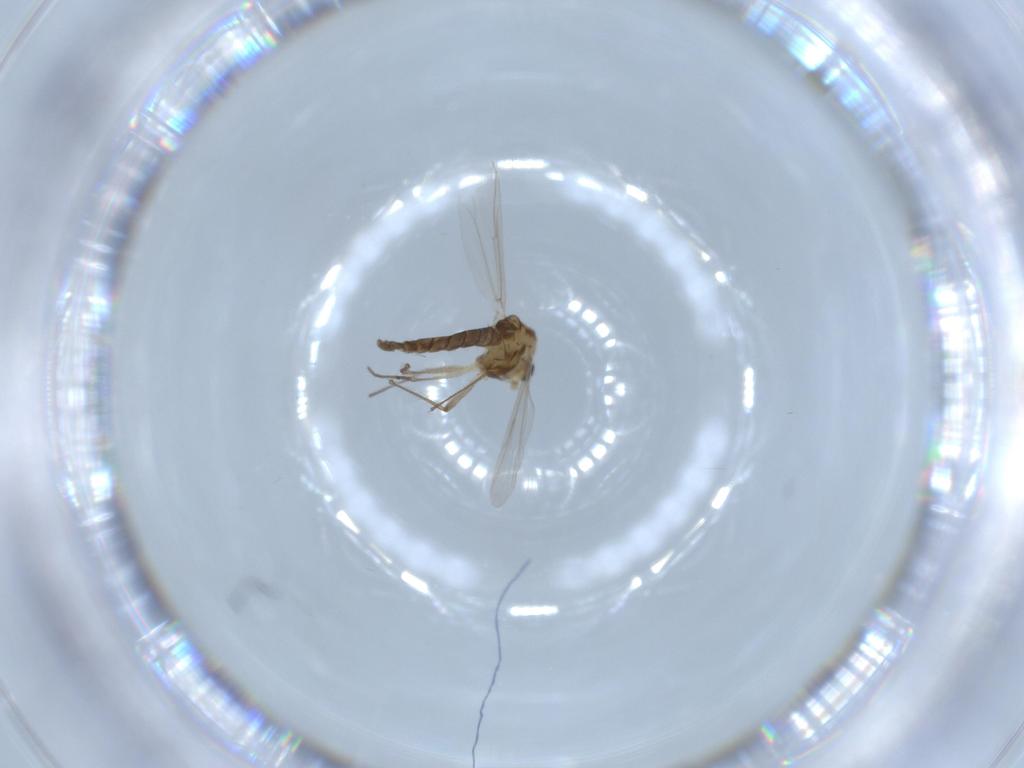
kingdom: Animalia
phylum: Arthropoda
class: Insecta
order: Diptera
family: Chironomidae
